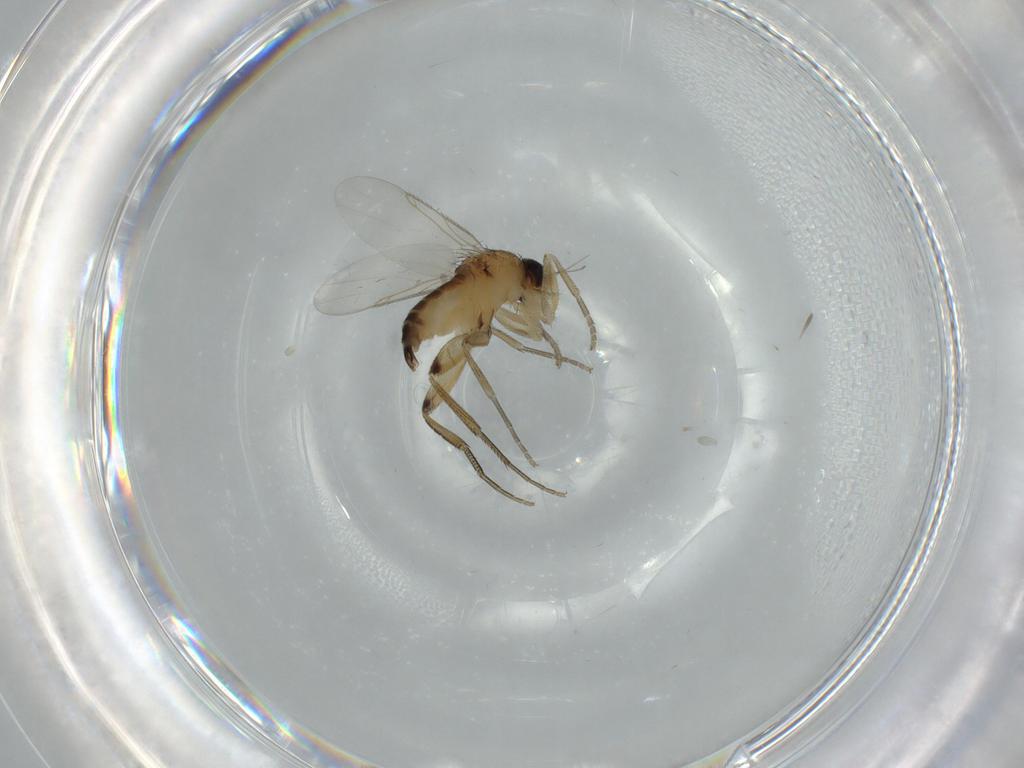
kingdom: Animalia
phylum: Arthropoda
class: Insecta
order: Diptera
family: Phoridae
